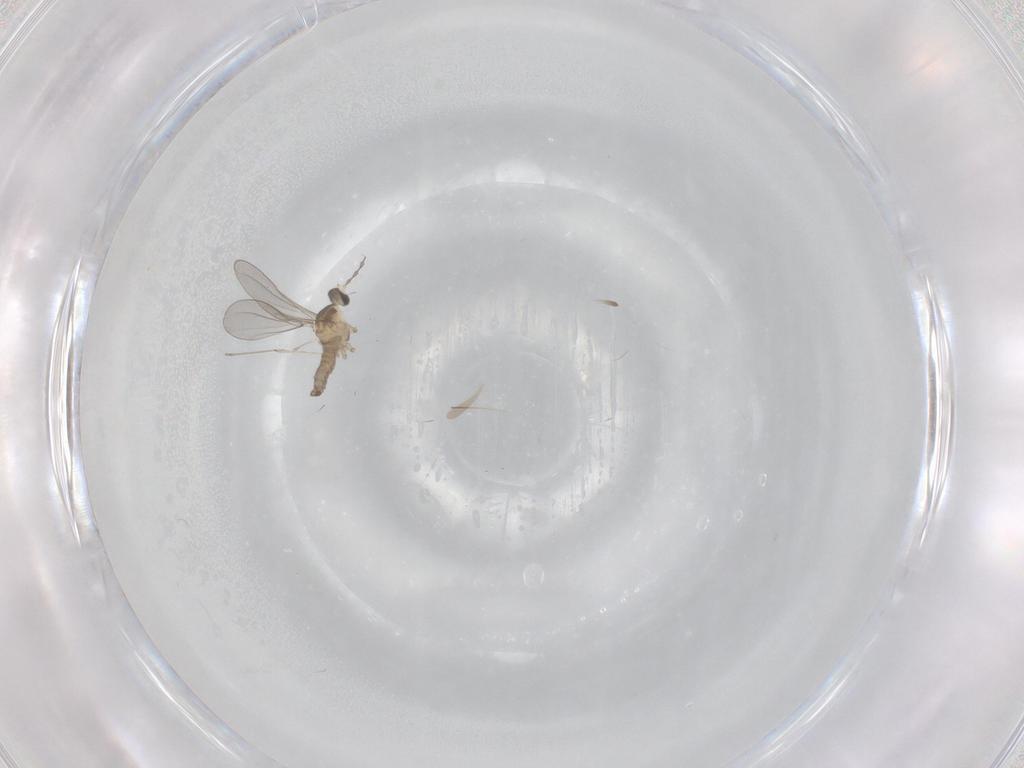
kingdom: Animalia
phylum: Arthropoda
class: Insecta
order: Diptera
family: Cecidomyiidae
